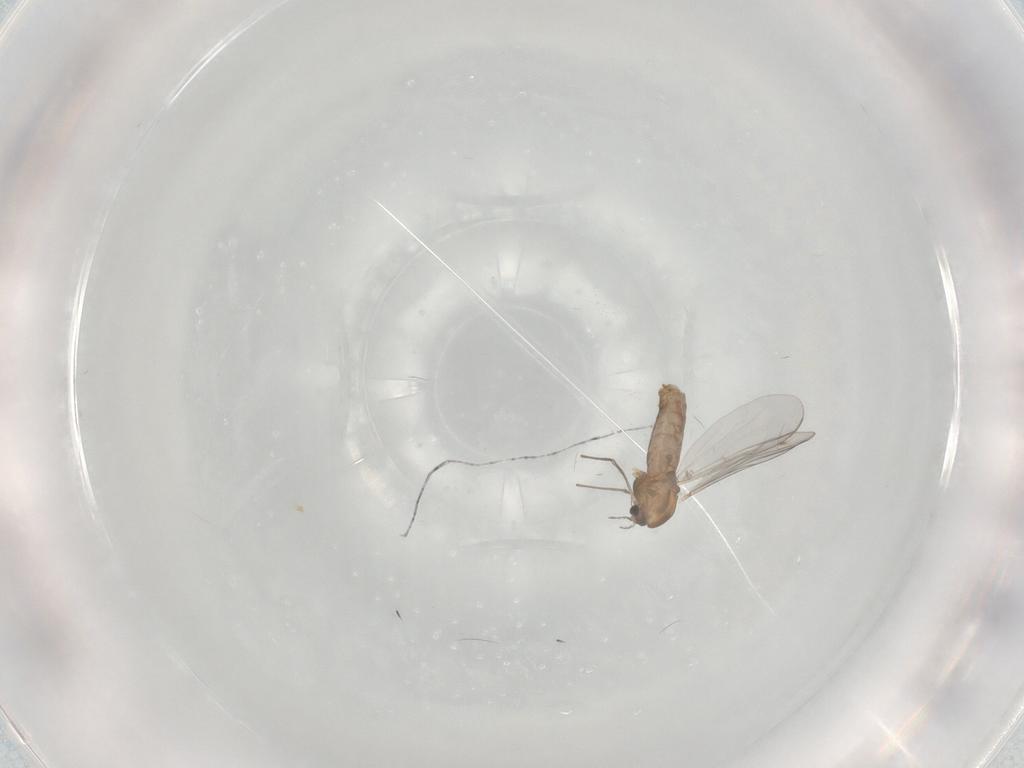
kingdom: Animalia
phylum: Arthropoda
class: Insecta
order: Diptera
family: Chironomidae
